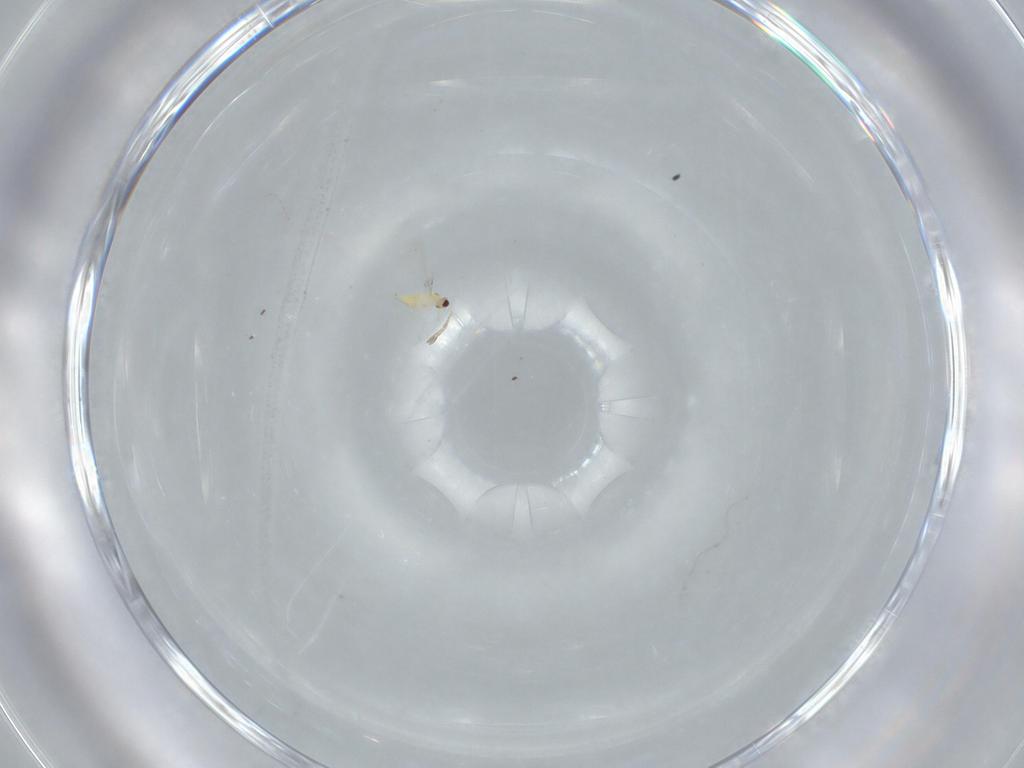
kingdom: Animalia
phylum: Arthropoda
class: Insecta
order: Hymenoptera
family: Mymaridae
